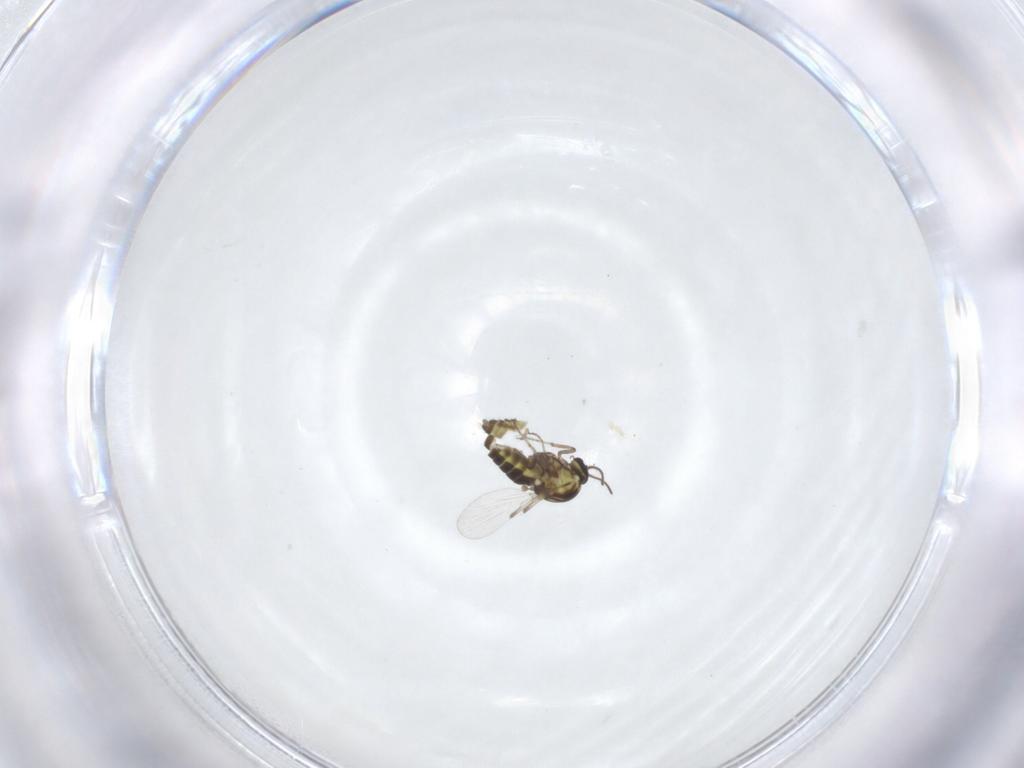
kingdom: Animalia
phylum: Arthropoda
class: Insecta
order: Diptera
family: Ceratopogonidae
